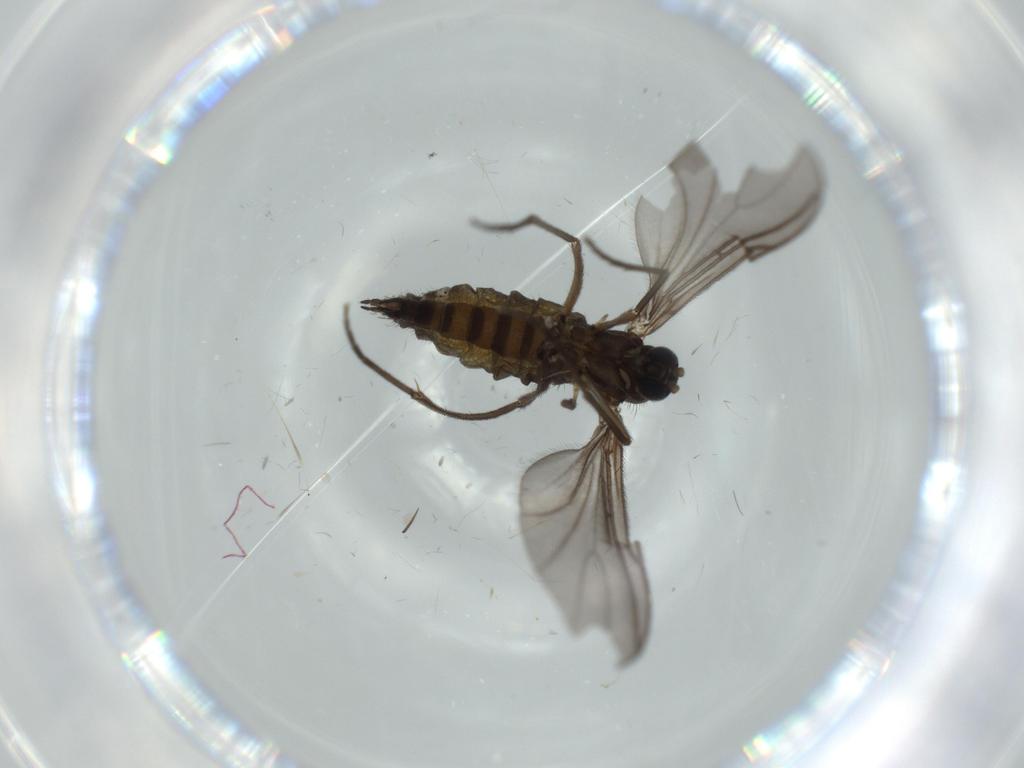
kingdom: Animalia
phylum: Arthropoda
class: Insecta
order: Diptera
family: Sciaridae
